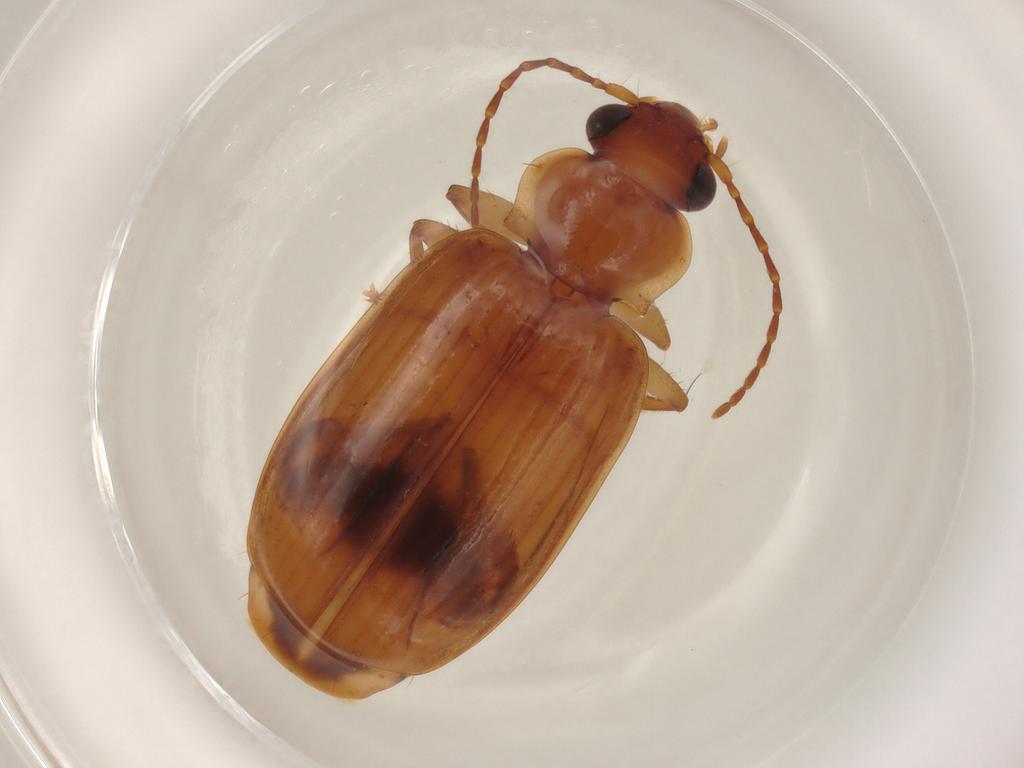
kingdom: Animalia
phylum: Arthropoda
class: Insecta
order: Coleoptera
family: Carabidae
